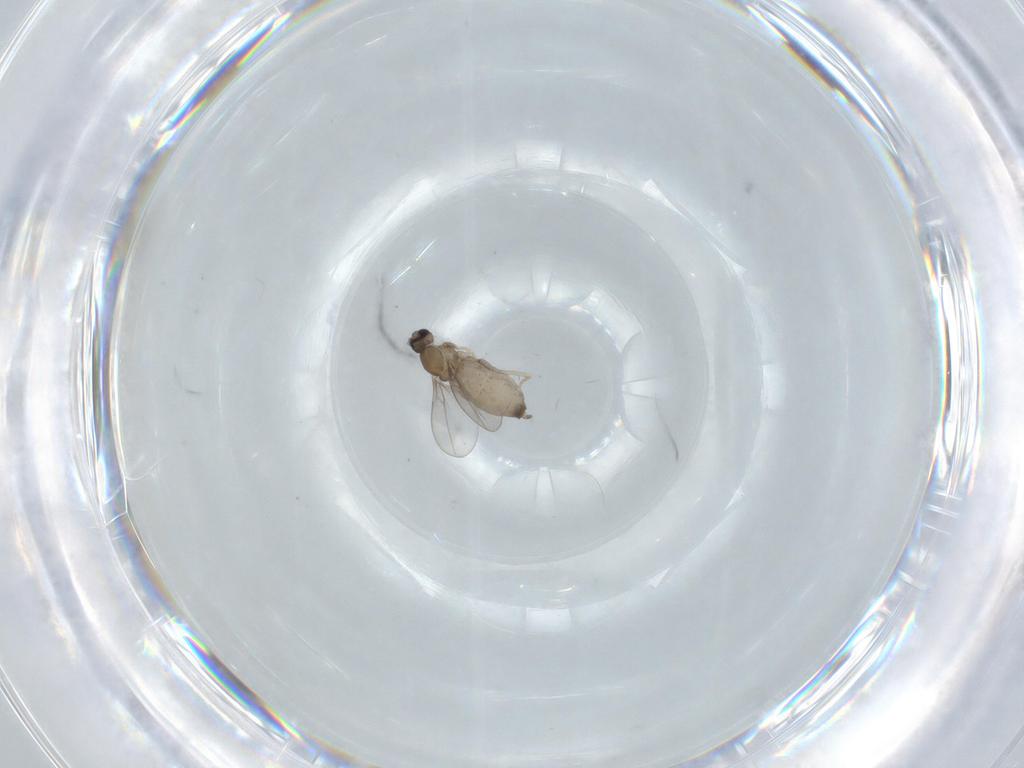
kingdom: Animalia
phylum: Arthropoda
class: Insecta
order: Diptera
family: Cecidomyiidae
